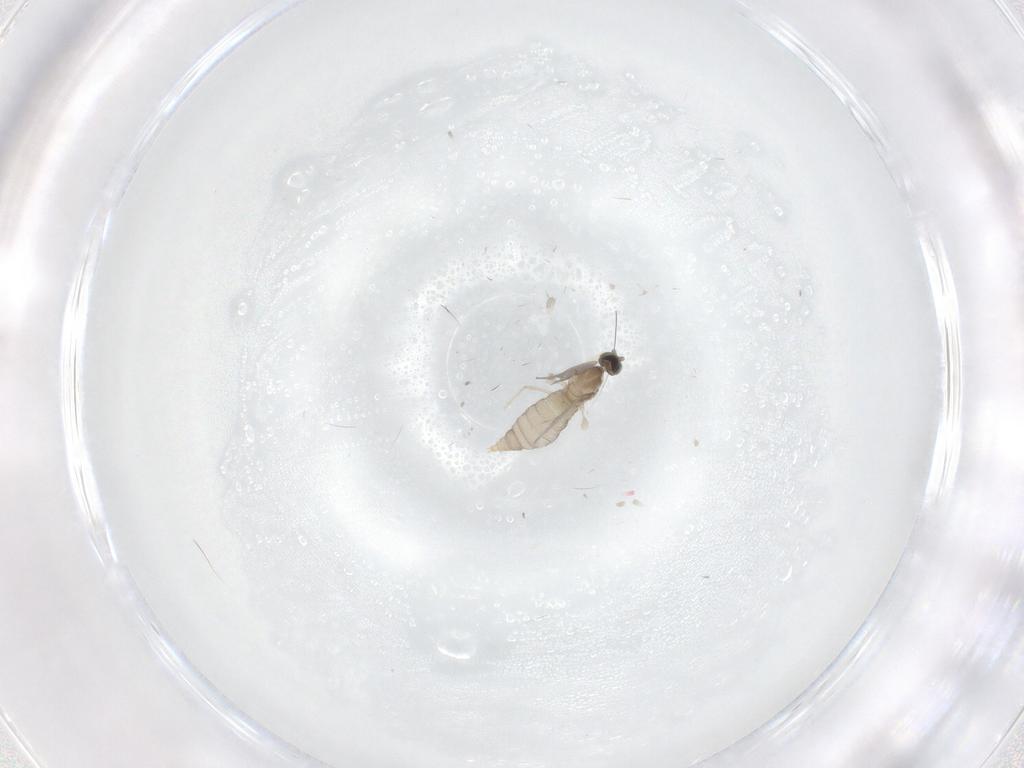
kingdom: Animalia
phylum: Arthropoda
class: Insecta
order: Diptera
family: Cecidomyiidae
